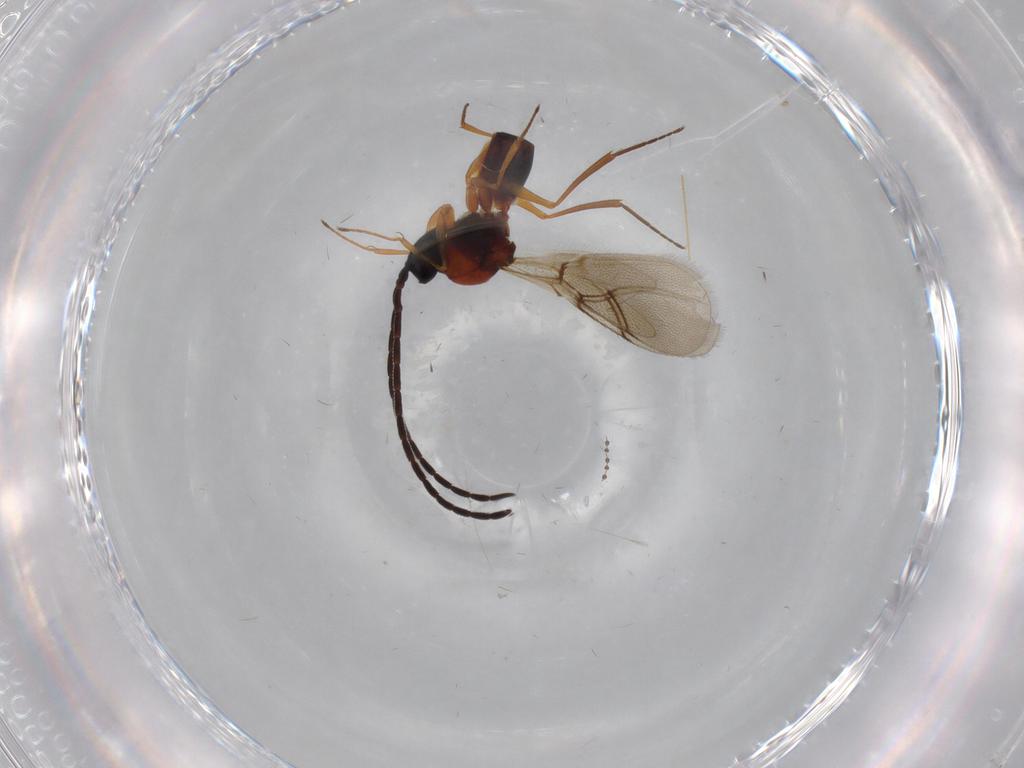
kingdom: Animalia
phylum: Arthropoda
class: Insecta
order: Hymenoptera
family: Figitidae
